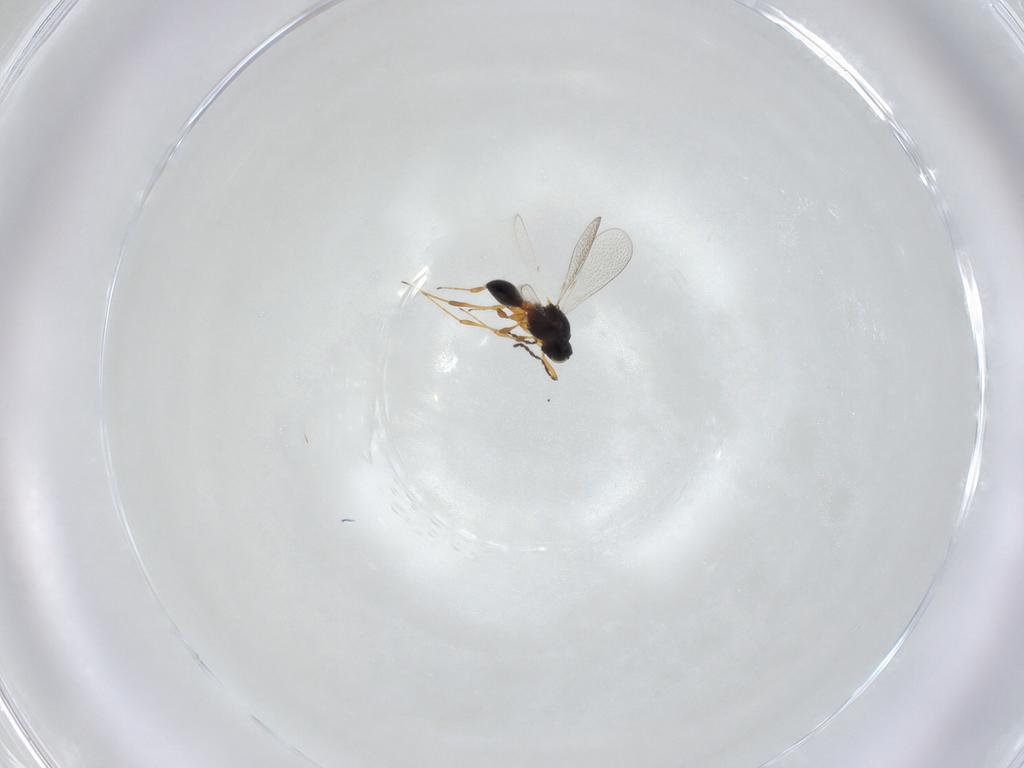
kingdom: Animalia
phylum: Arthropoda
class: Insecta
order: Hymenoptera
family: Platygastridae
